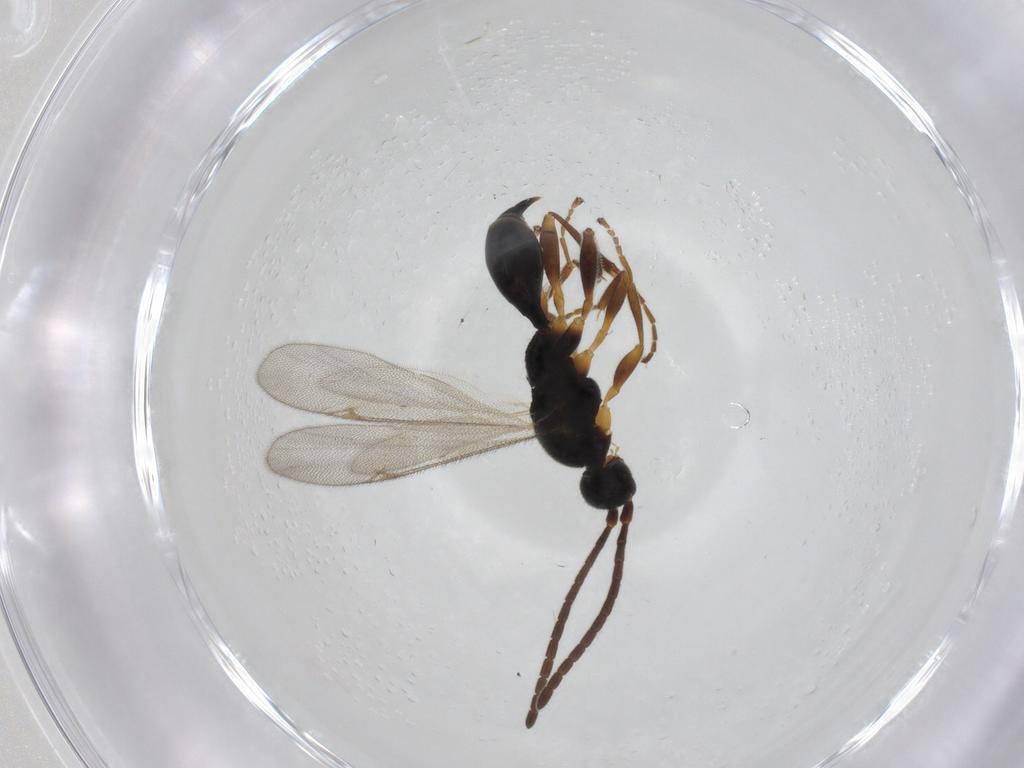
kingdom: Animalia
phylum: Arthropoda
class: Insecta
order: Hymenoptera
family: Proctotrupidae
